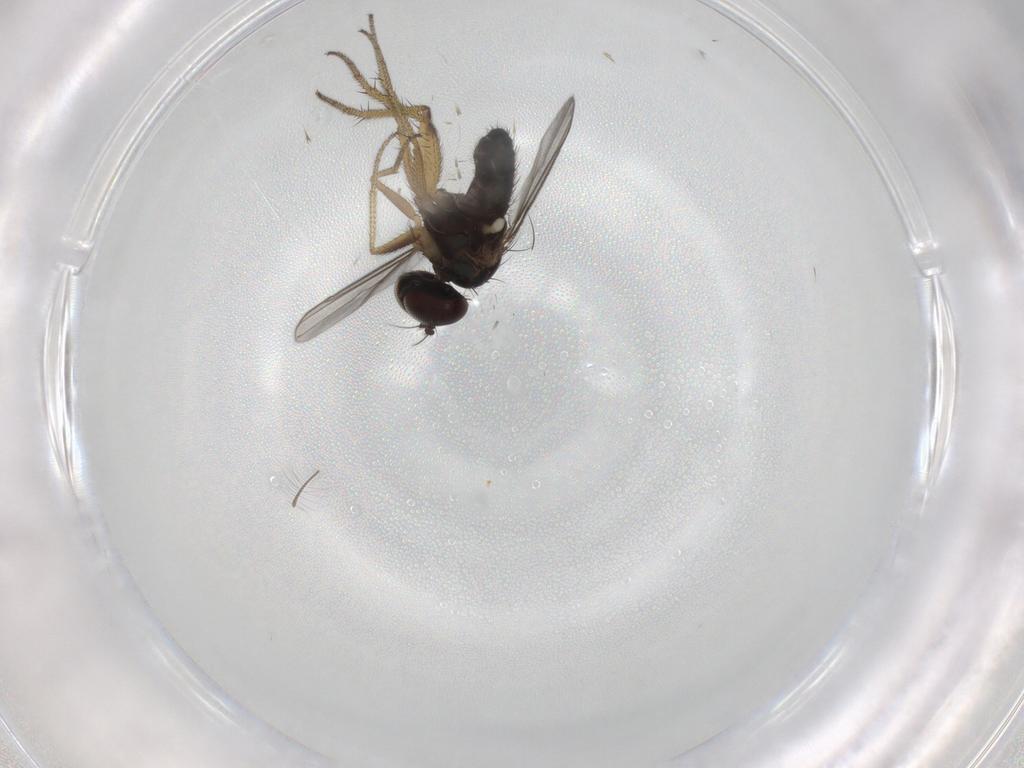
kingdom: Animalia
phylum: Arthropoda
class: Insecta
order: Diptera
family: Dolichopodidae
